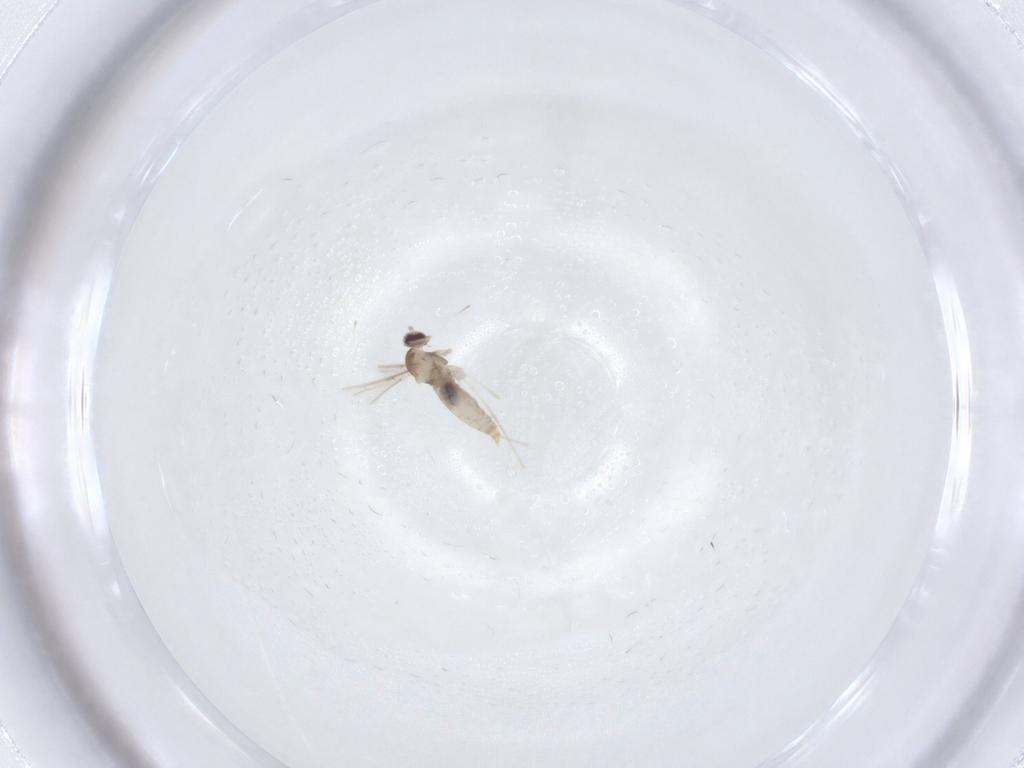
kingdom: Animalia
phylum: Arthropoda
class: Insecta
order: Diptera
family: Cecidomyiidae
